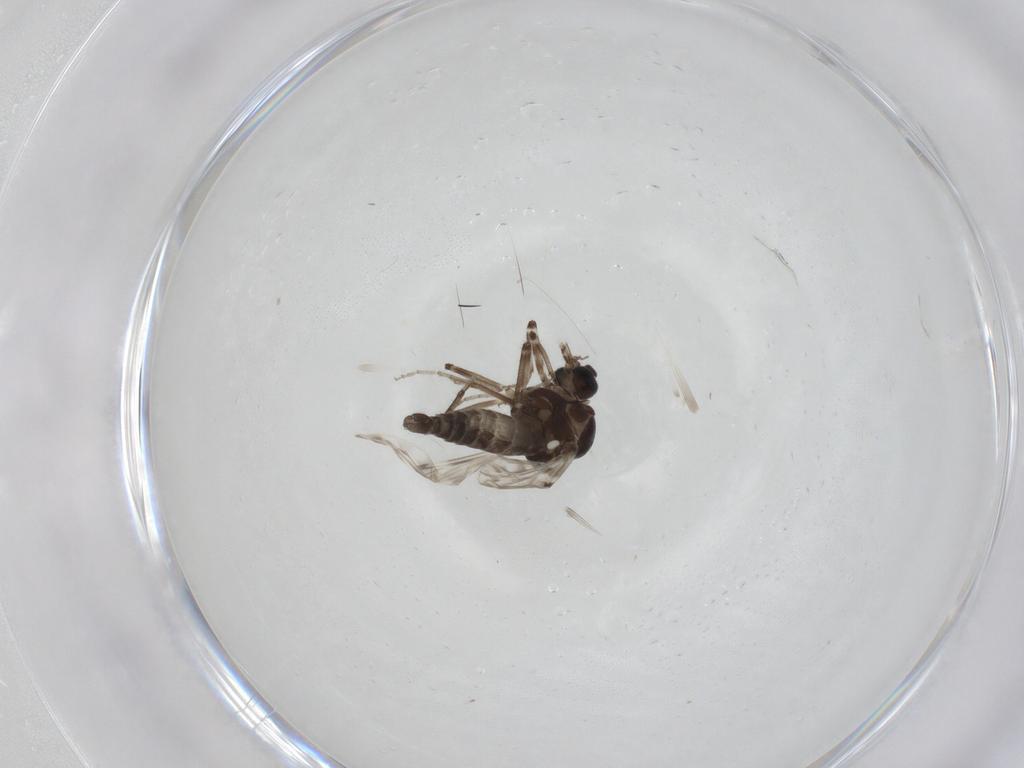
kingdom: Animalia
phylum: Arthropoda
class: Insecta
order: Diptera
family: Ceratopogonidae
